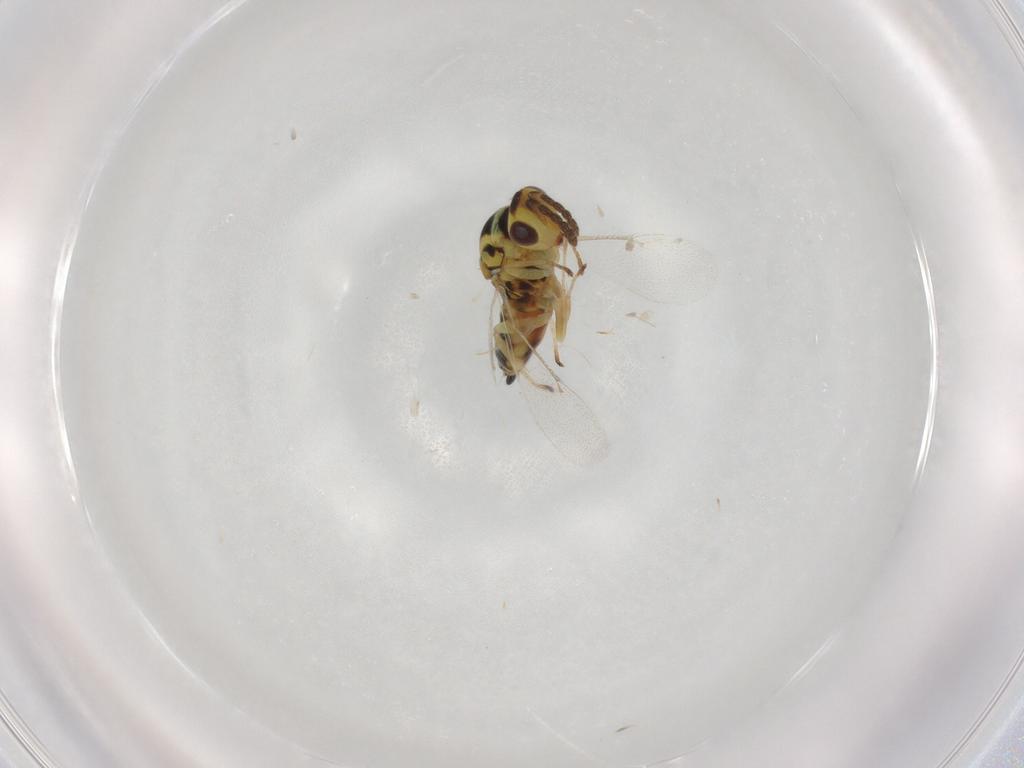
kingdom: Animalia
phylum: Arthropoda
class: Insecta
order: Hymenoptera
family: Eulophidae
